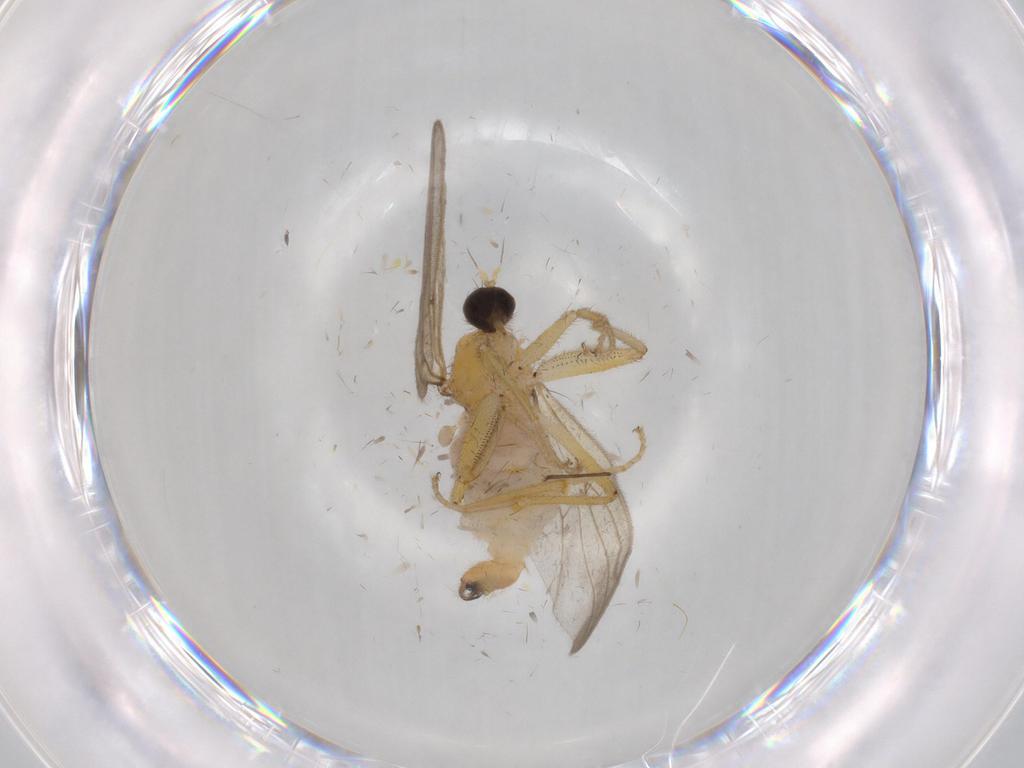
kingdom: Animalia
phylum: Arthropoda
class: Insecta
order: Diptera
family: Hybotidae
